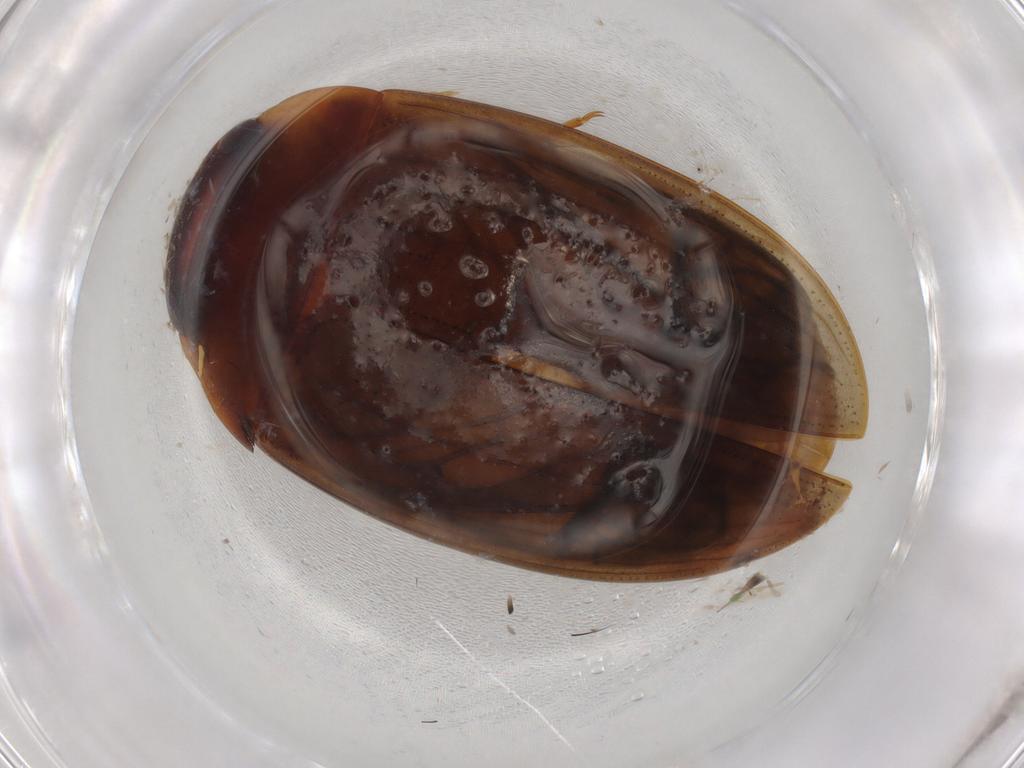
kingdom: Animalia
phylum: Arthropoda
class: Insecta
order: Coleoptera
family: Dytiscidae
